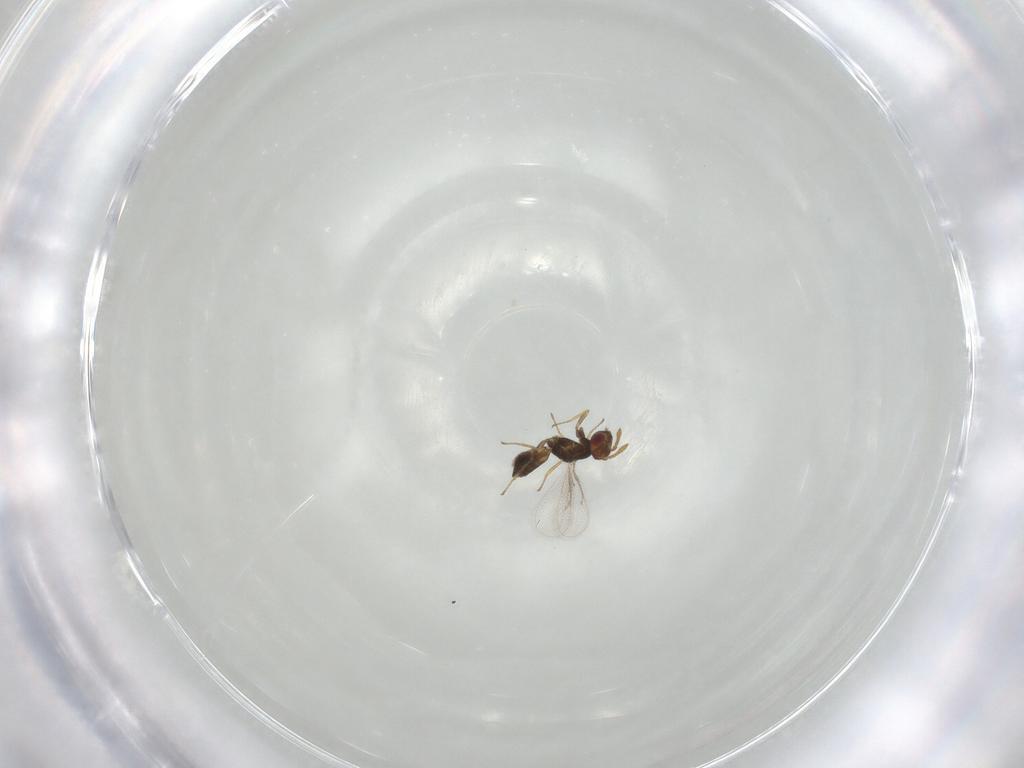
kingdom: Animalia
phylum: Arthropoda
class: Insecta
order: Hymenoptera
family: Eulophidae
